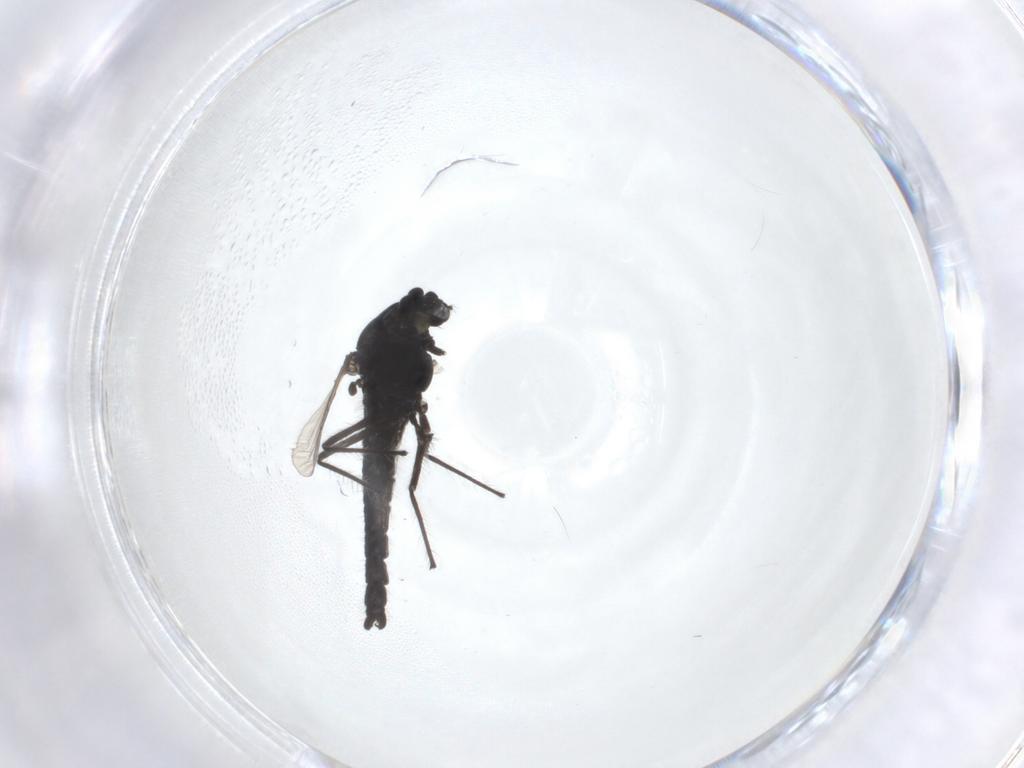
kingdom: Animalia
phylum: Arthropoda
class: Insecta
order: Diptera
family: Chironomidae
